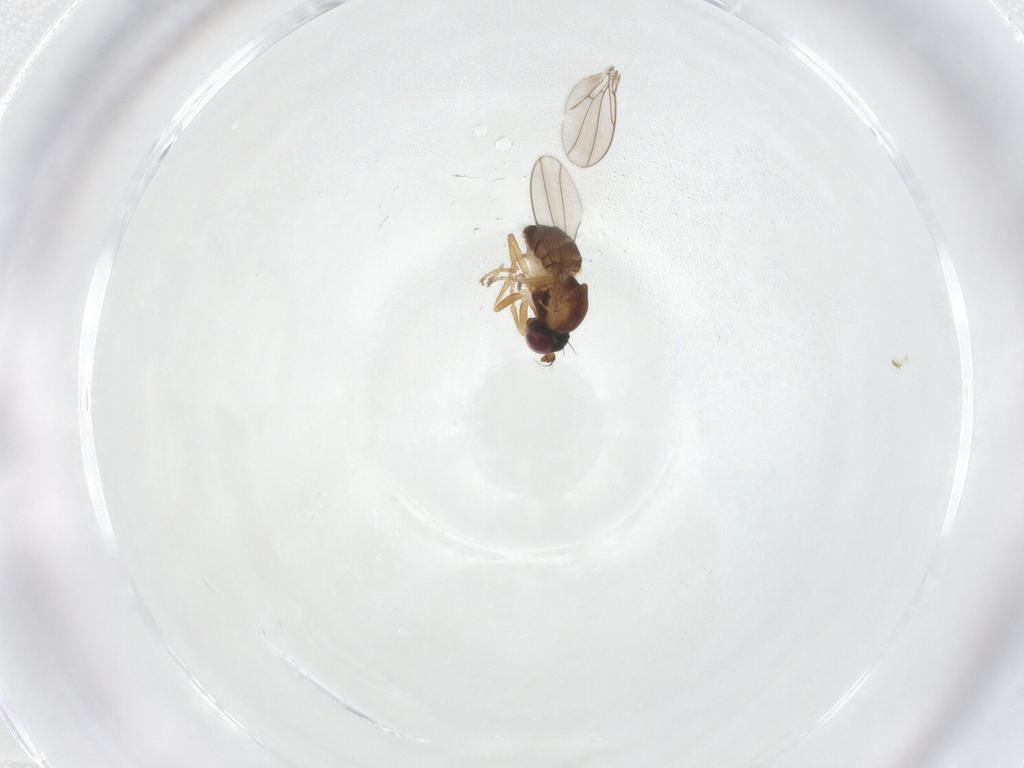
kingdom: Animalia
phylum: Arthropoda
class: Insecta
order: Diptera
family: Ephydridae
